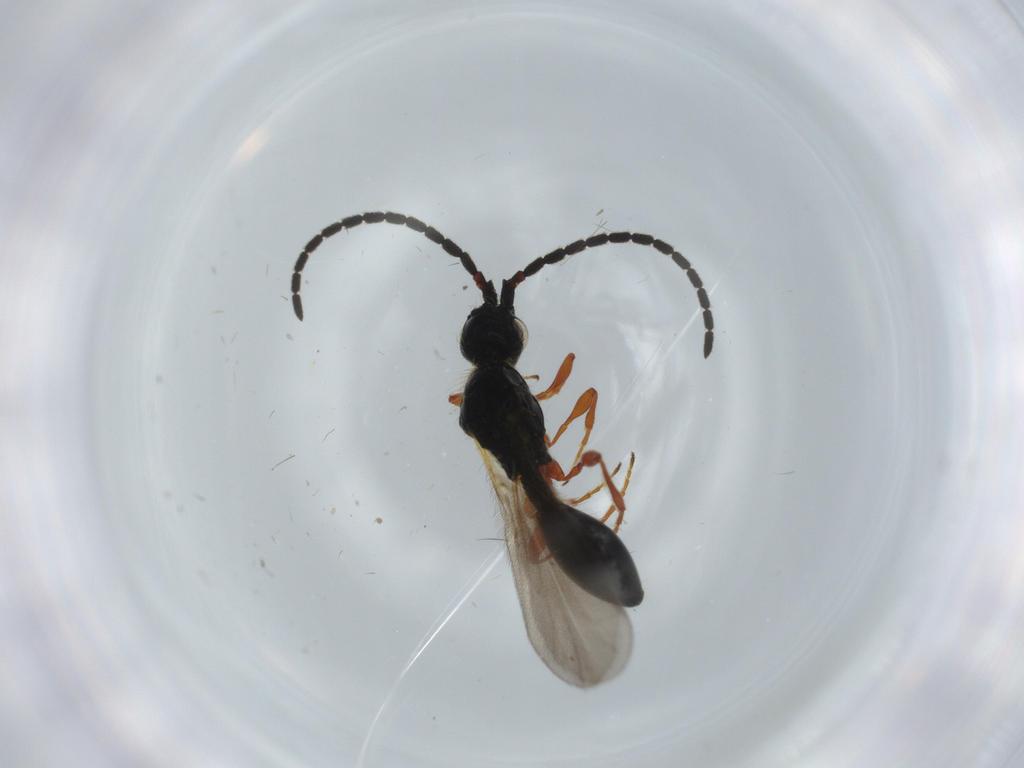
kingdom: Animalia
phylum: Arthropoda
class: Insecta
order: Hymenoptera
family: Diapriidae
